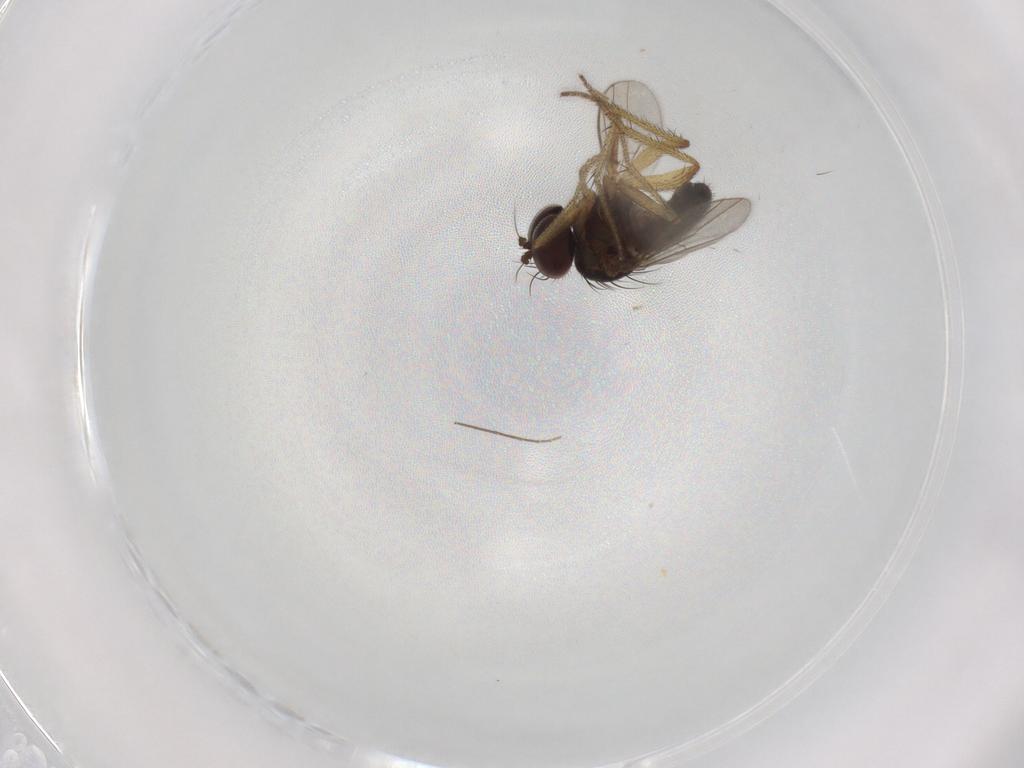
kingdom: Animalia
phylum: Arthropoda
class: Insecta
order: Diptera
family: Chironomidae
